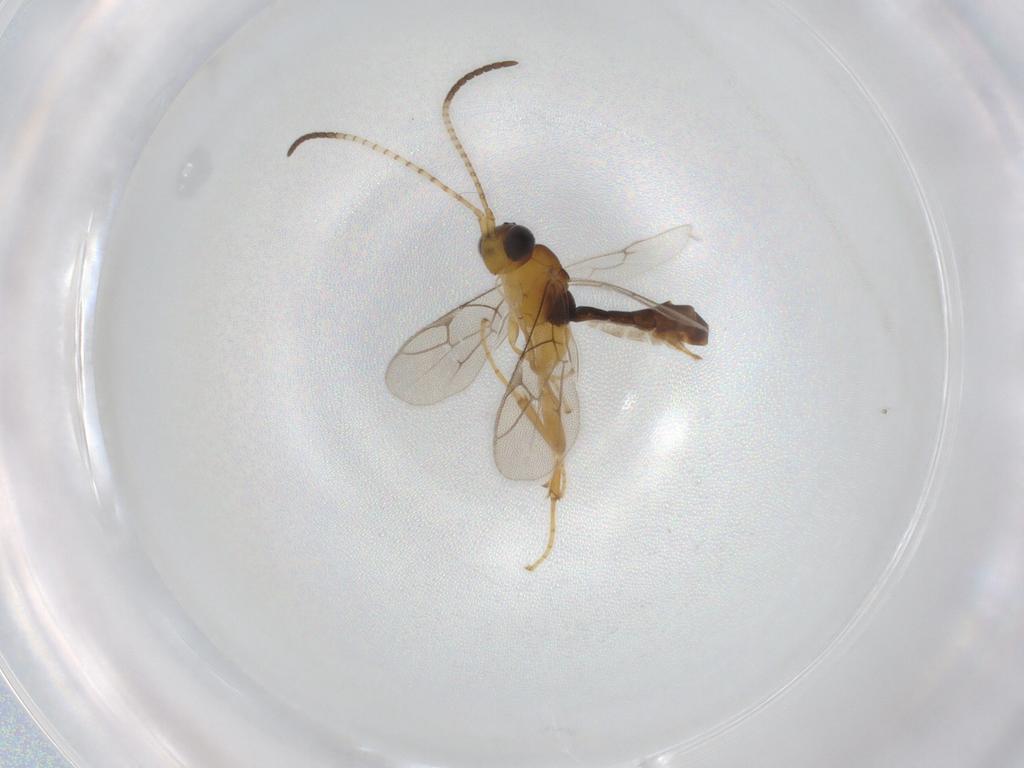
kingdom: Animalia
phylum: Arthropoda
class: Insecta
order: Hymenoptera
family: Ichneumonidae
